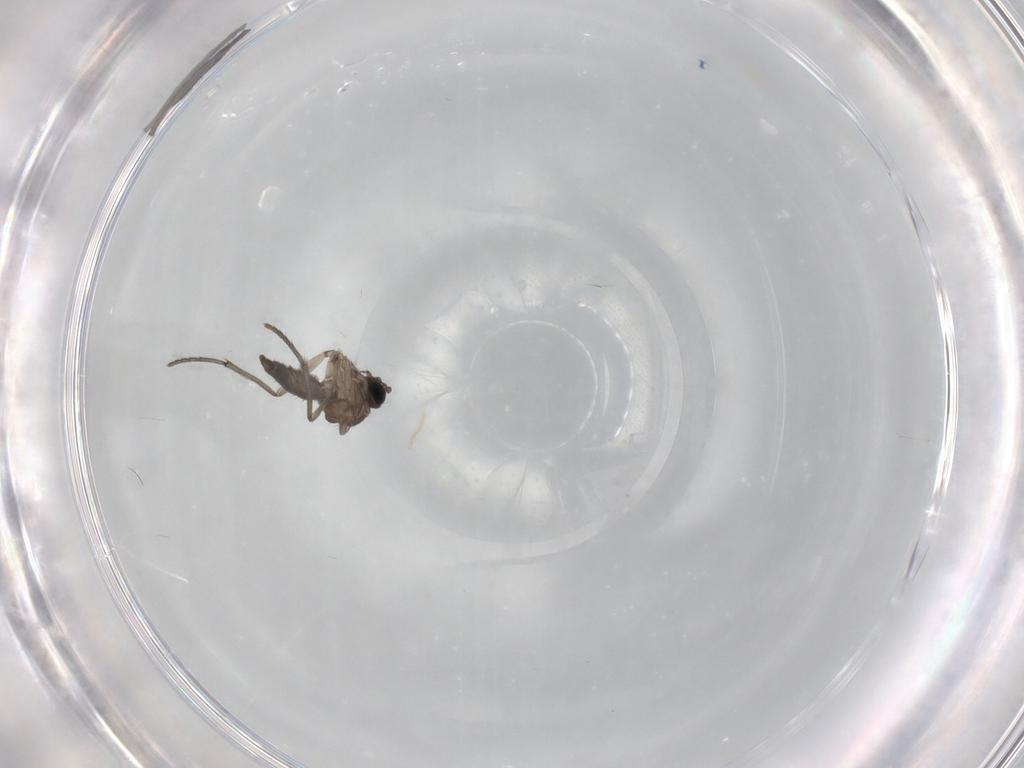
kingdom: Animalia
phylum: Arthropoda
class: Insecta
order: Diptera
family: Sciaridae
